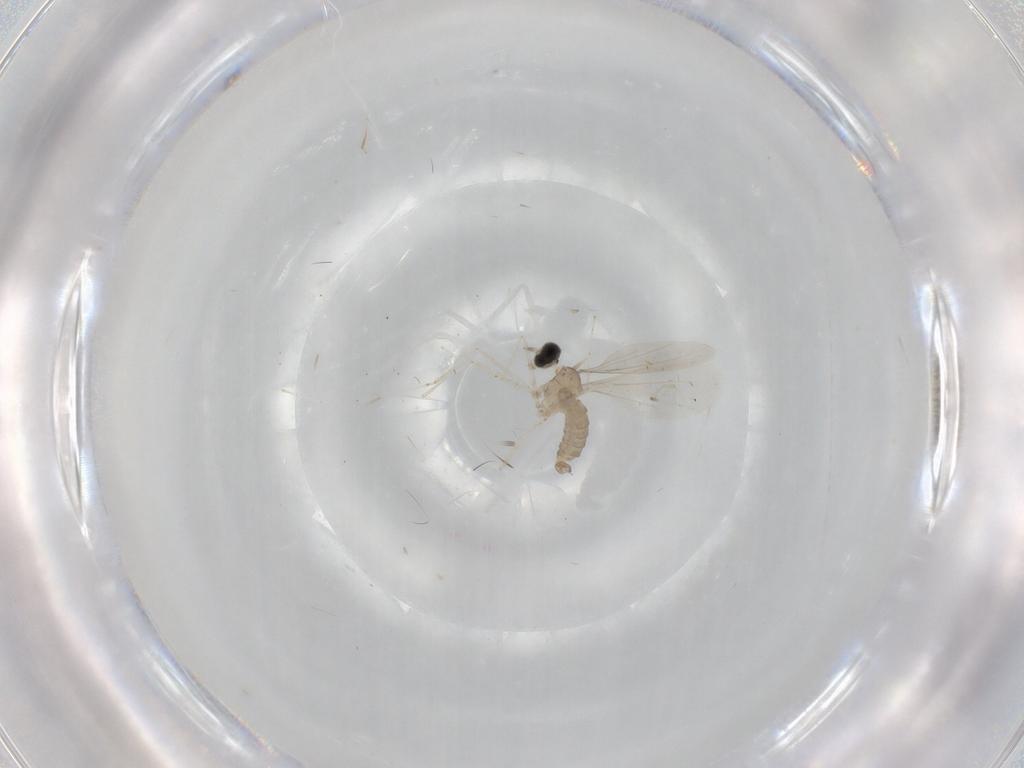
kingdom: Animalia
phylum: Arthropoda
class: Insecta
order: Diptera
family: Cecidomyiidae
